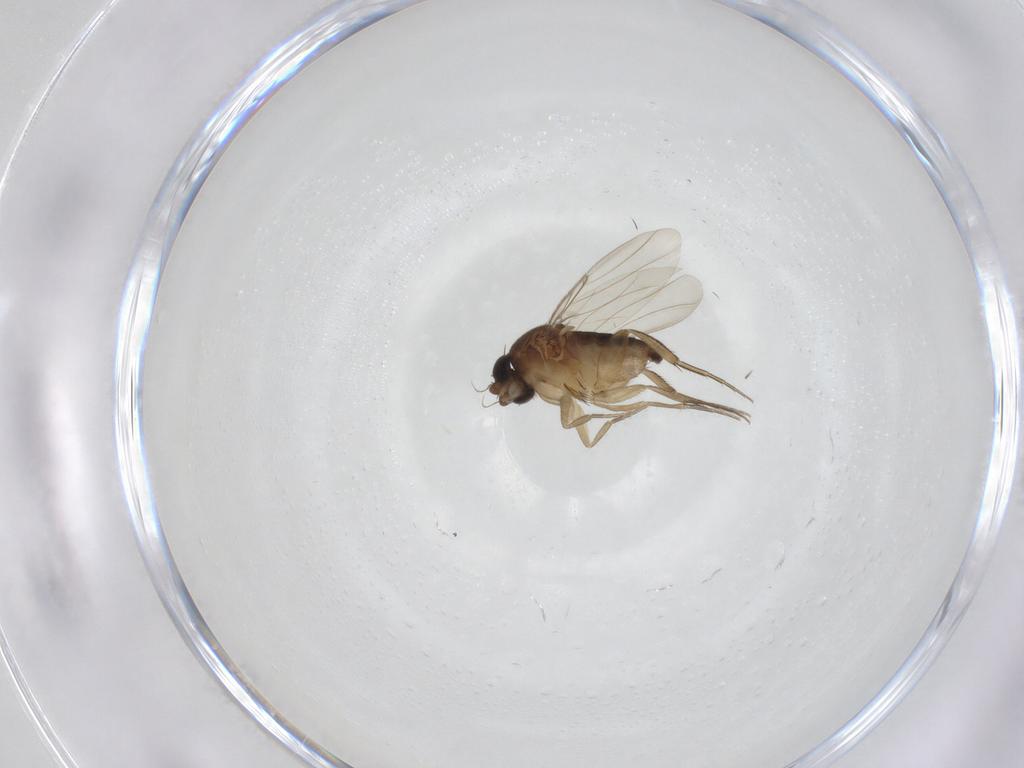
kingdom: Animalia
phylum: Arthropoda
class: Insecta
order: Diptera
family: Phoridae
